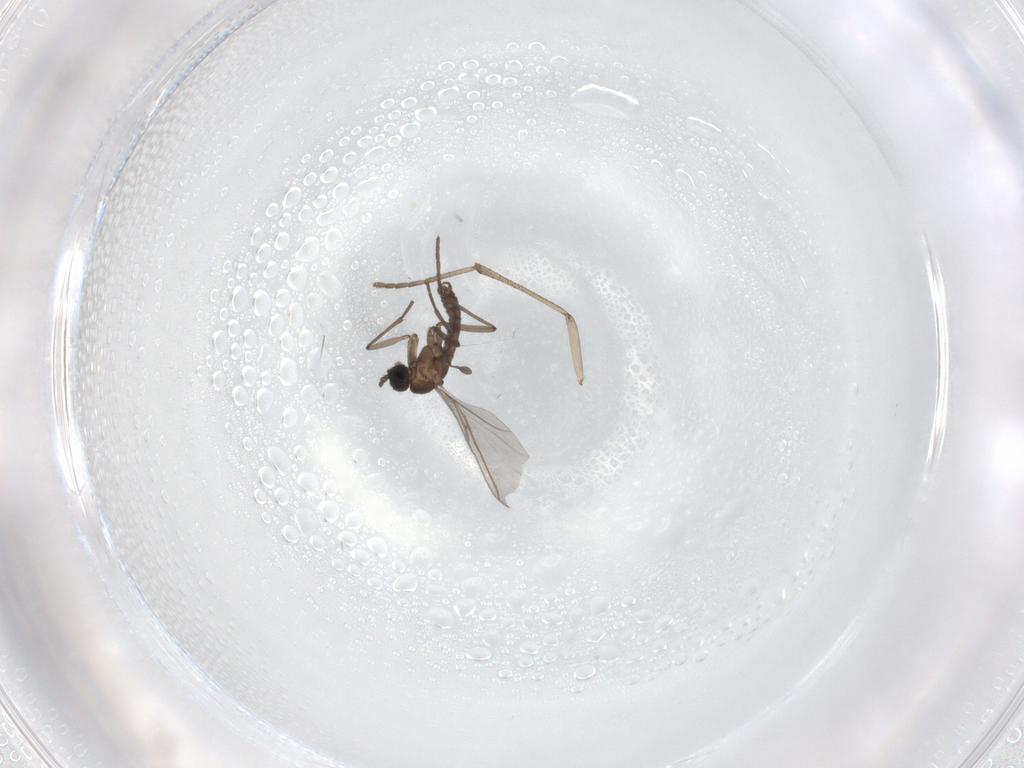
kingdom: Animalia
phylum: Arthropoda
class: Insecta
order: Diptera
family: Sciaridae
